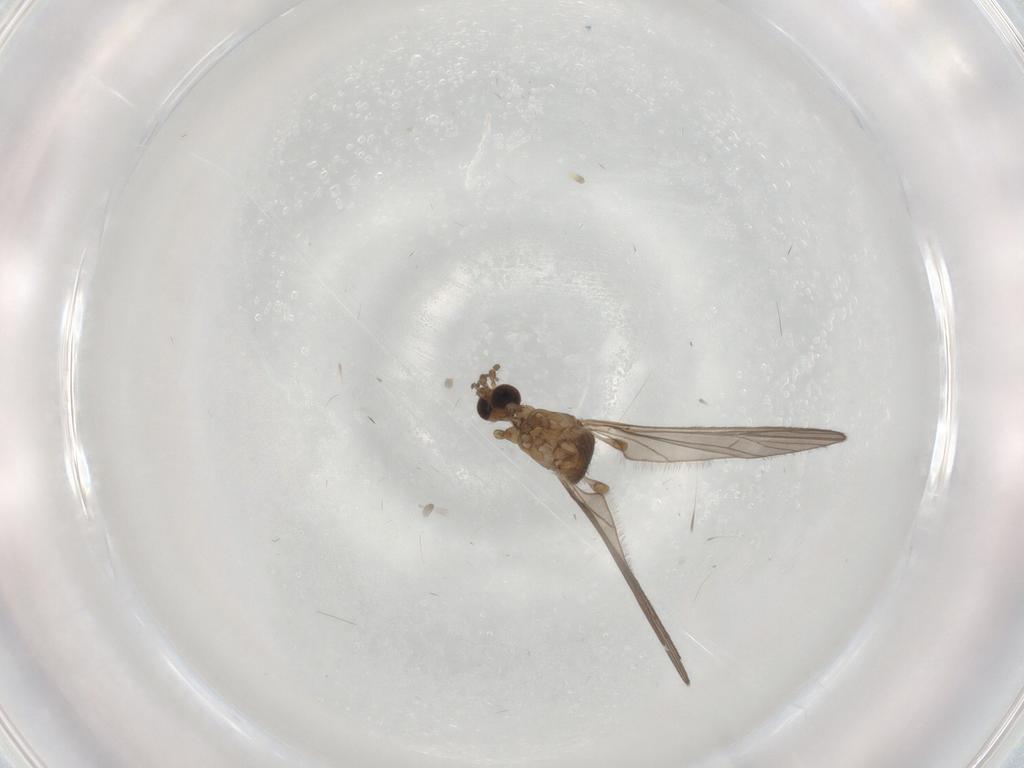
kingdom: Animalia
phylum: Arthropoda
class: Insecta
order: Diptera
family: Limoniidae
